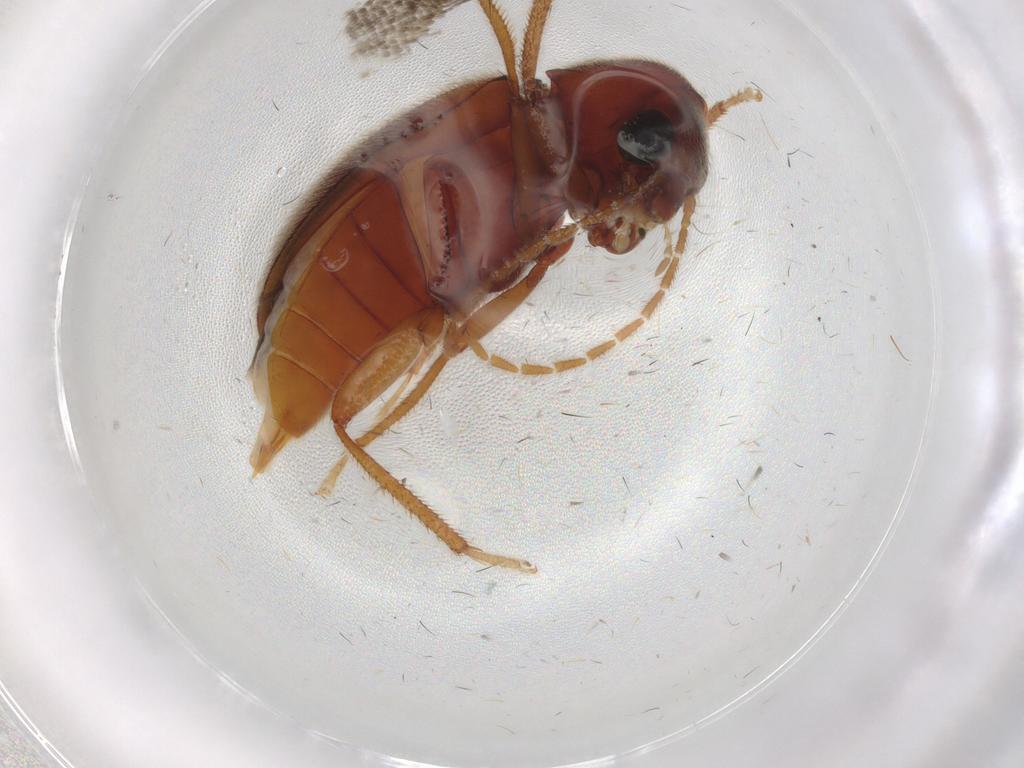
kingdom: Animalia
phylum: Arthropoda
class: Insecta
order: Coleoptera
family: Ptilodactylidae
